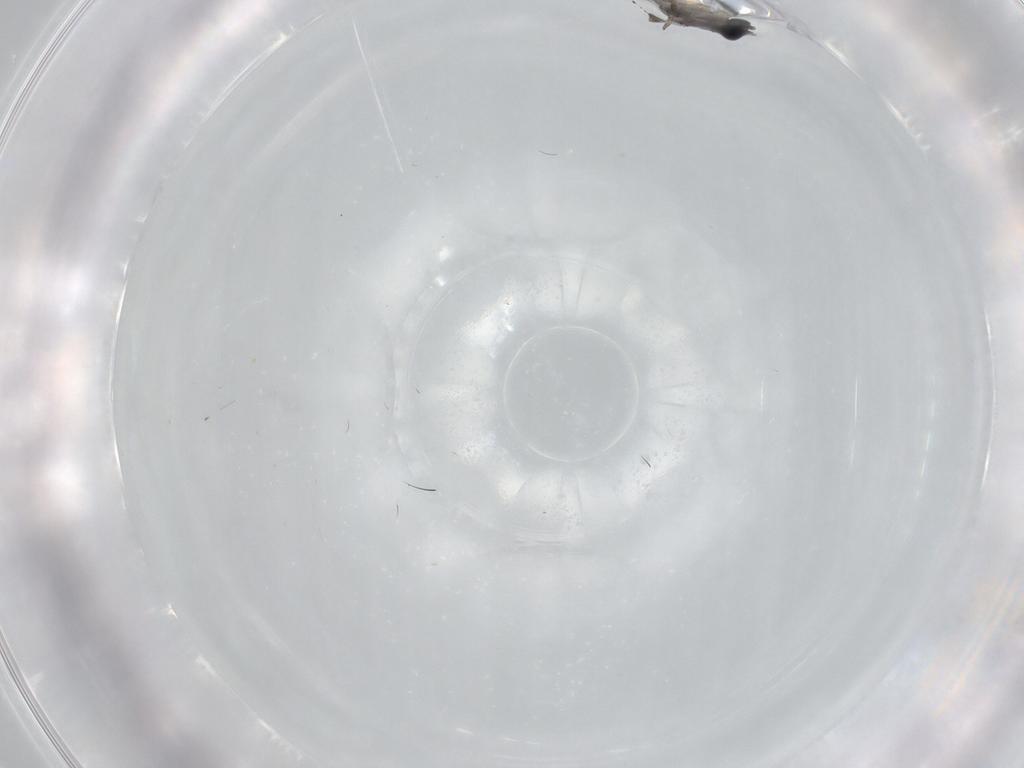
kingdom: Animalia
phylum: Arthropoda
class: Insecta
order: Diptera
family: Sciaridae
